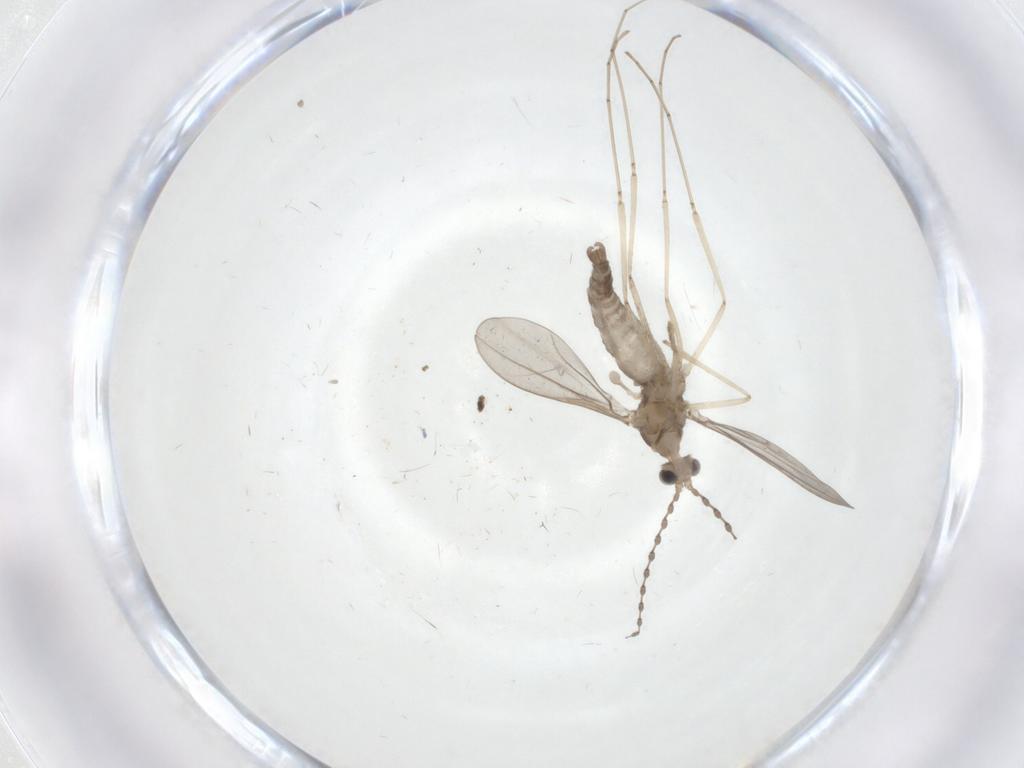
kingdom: Animalia
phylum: Arthropoda
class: Insecta
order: Diptera
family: Cecidomyiidae
